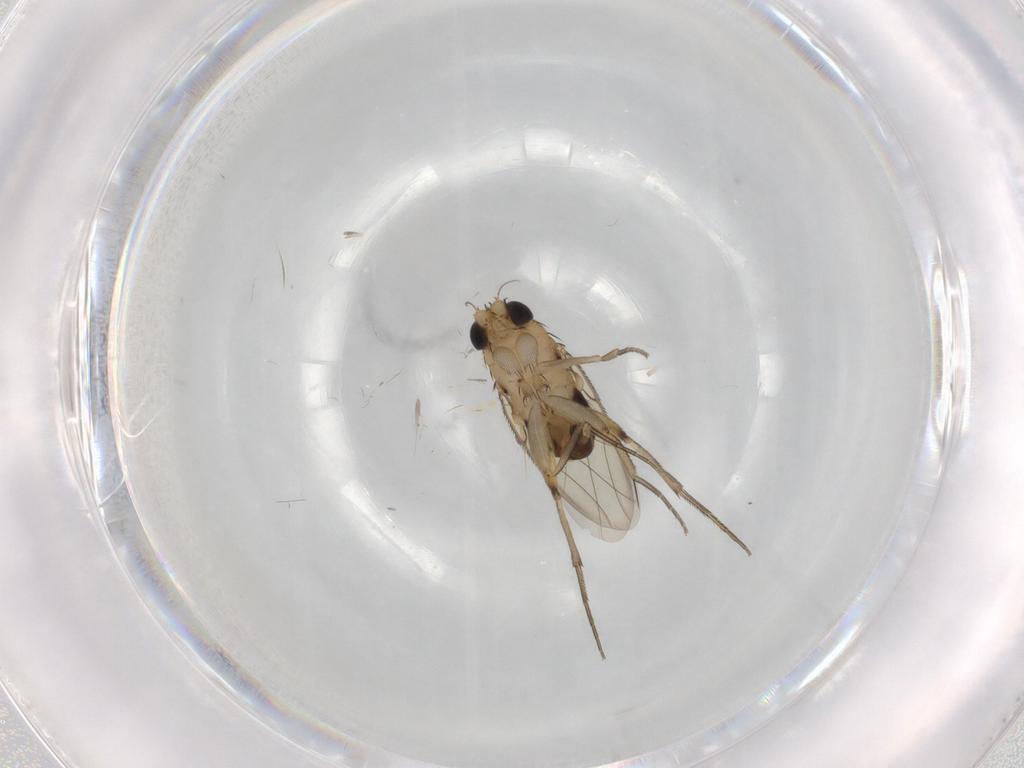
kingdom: Animalia
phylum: Arthropoda
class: Insecta
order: Diptera
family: Phoridae
